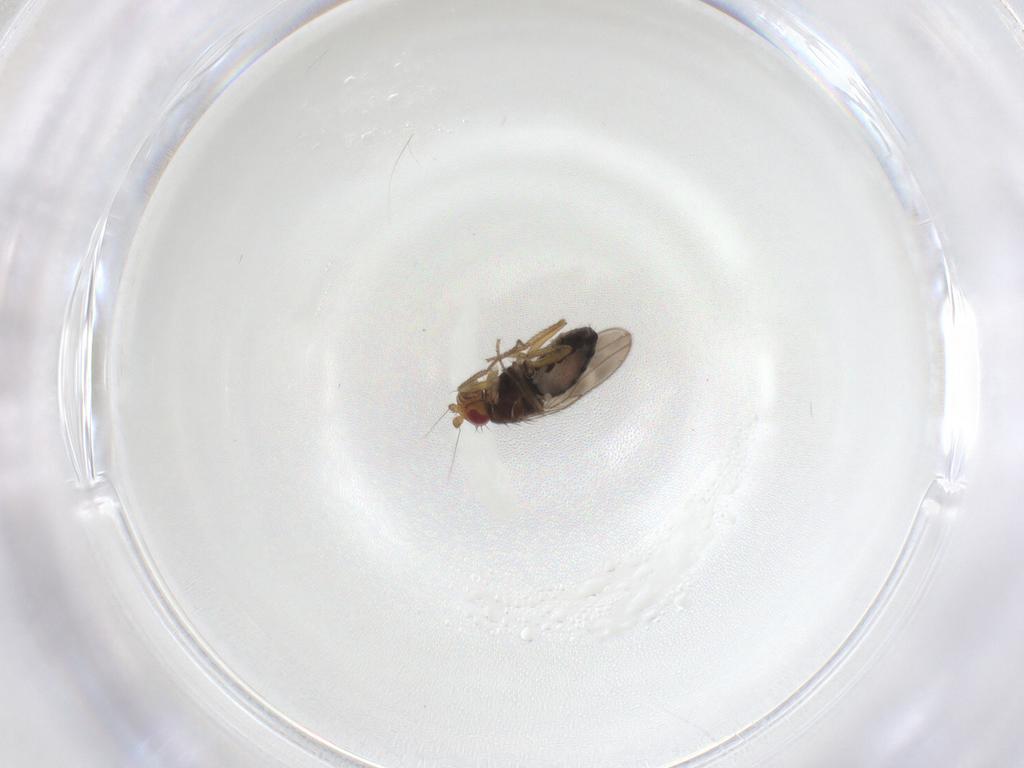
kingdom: Animalia
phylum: Arthropoda
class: Insecta
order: Diptera
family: Sphaeroceridae
